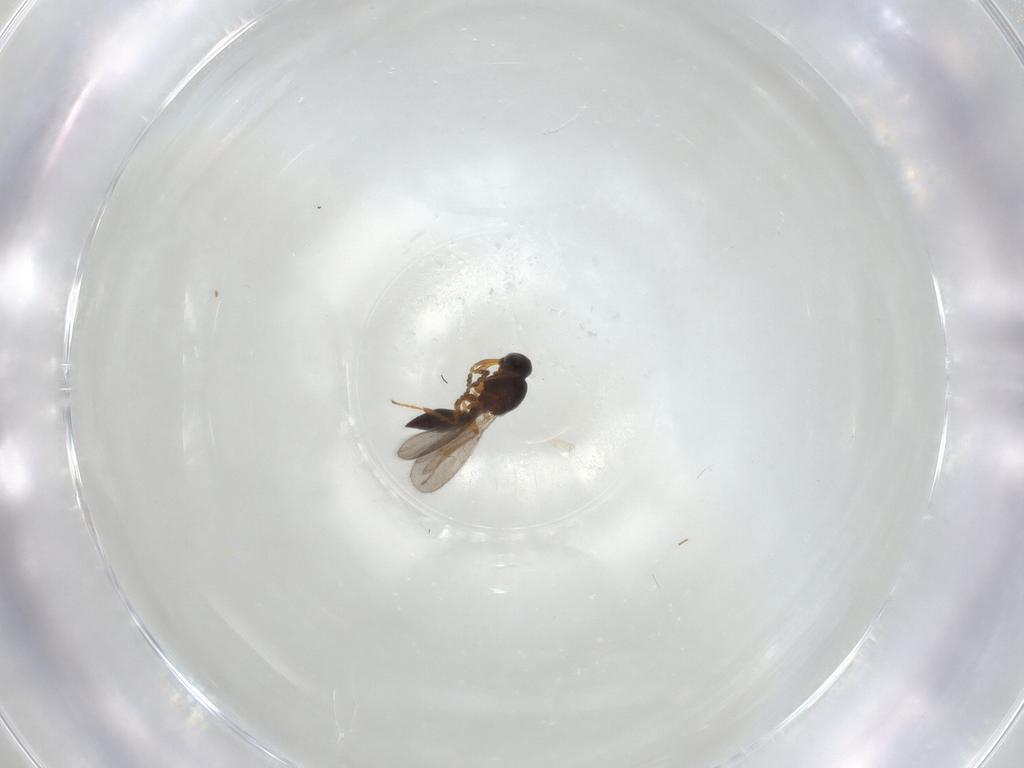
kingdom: Animalia
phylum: Arthropoda
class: Insecta
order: Hymenoptera
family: Platygastridae
